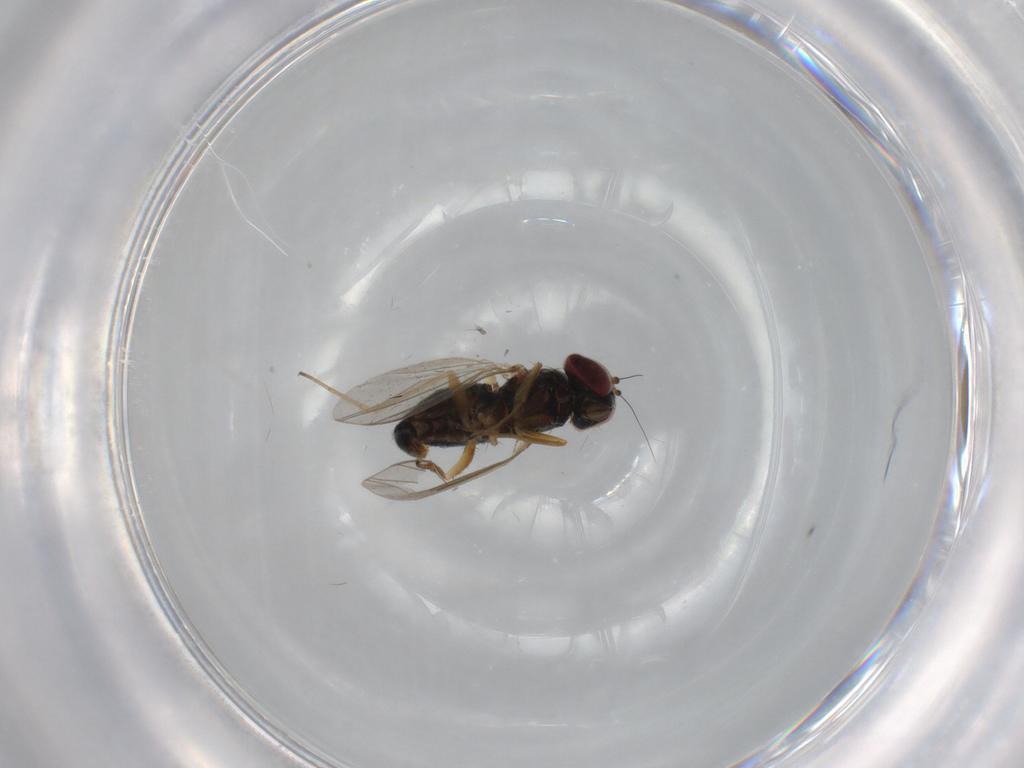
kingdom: Animalia
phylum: Arthropoda
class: Insecta
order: Diptera
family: Dolichopodidae
